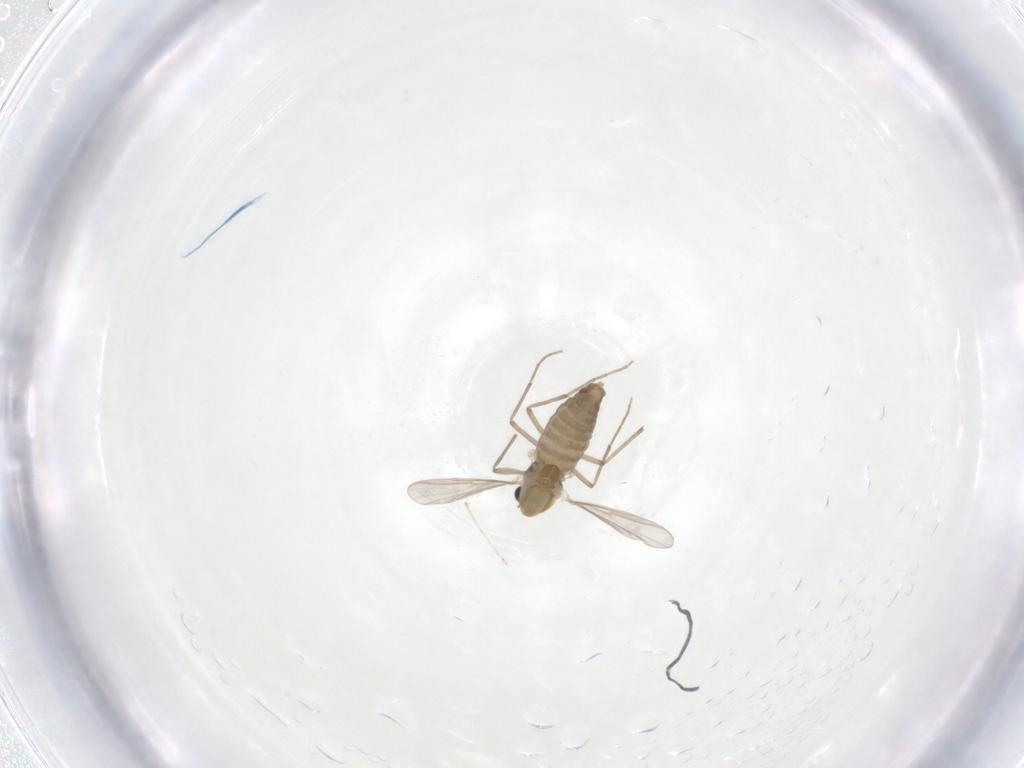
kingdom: Animalia
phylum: Arthropoda
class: Insecta
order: Diptera
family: Chironomidae
